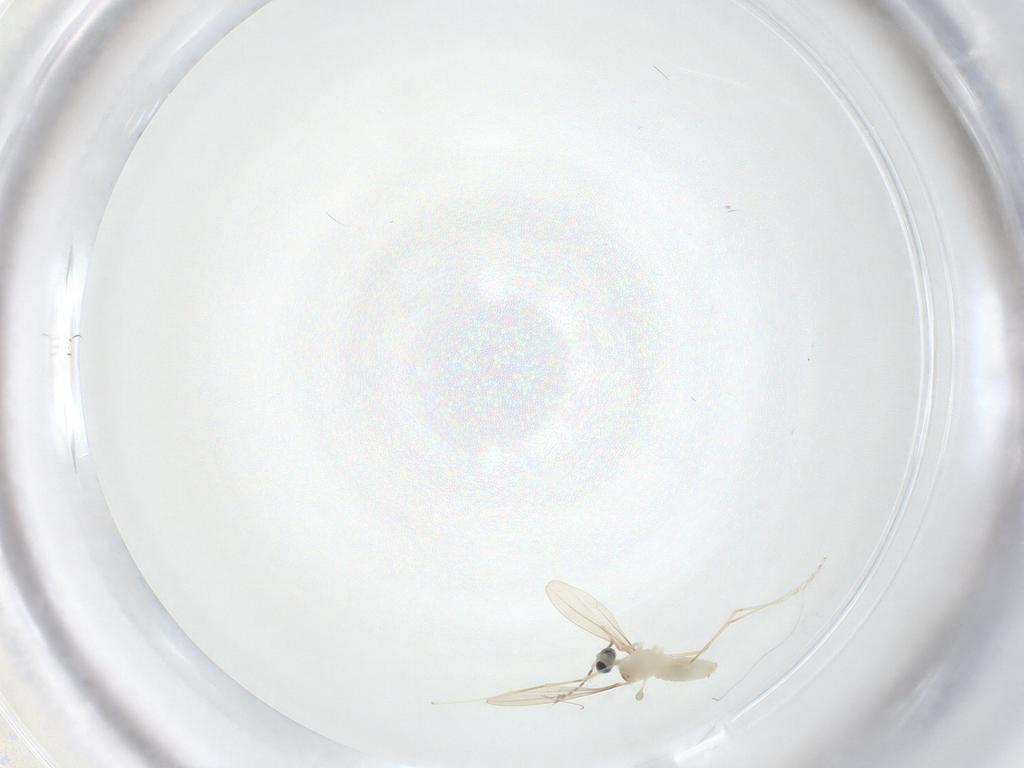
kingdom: Animalia
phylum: Arthropoda
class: Insecta
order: Diptera
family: Cecidomyiidae
